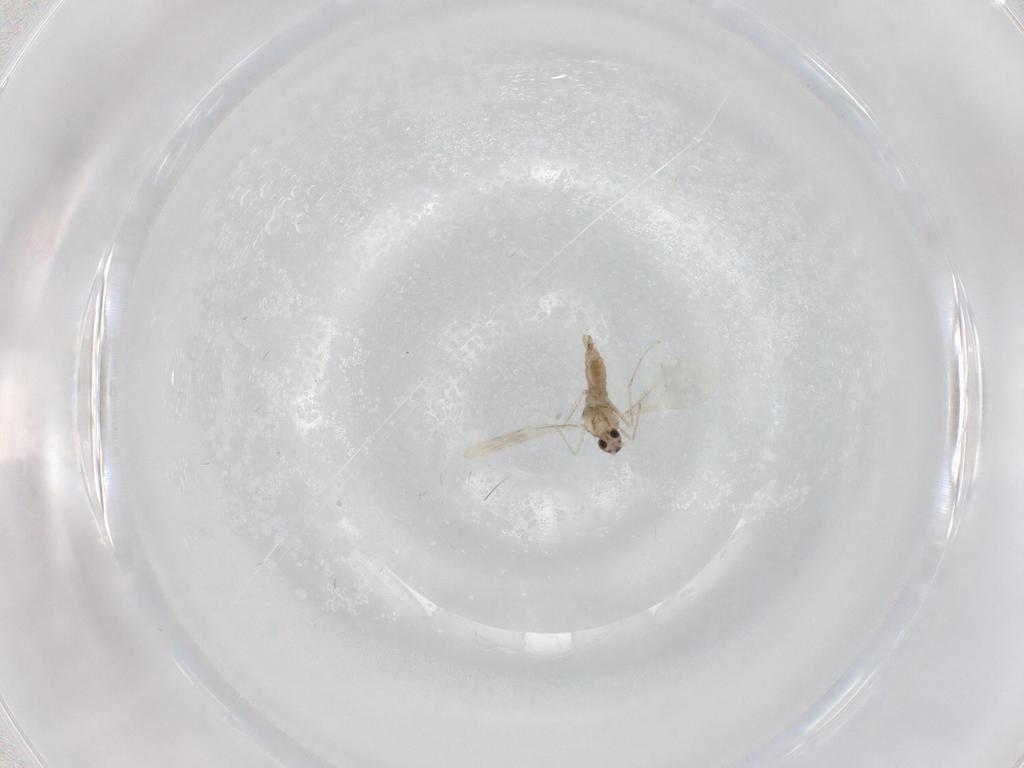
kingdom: Animalia
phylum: Arthropoda
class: Insecta
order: Diptera
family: Cecidomyiidae
